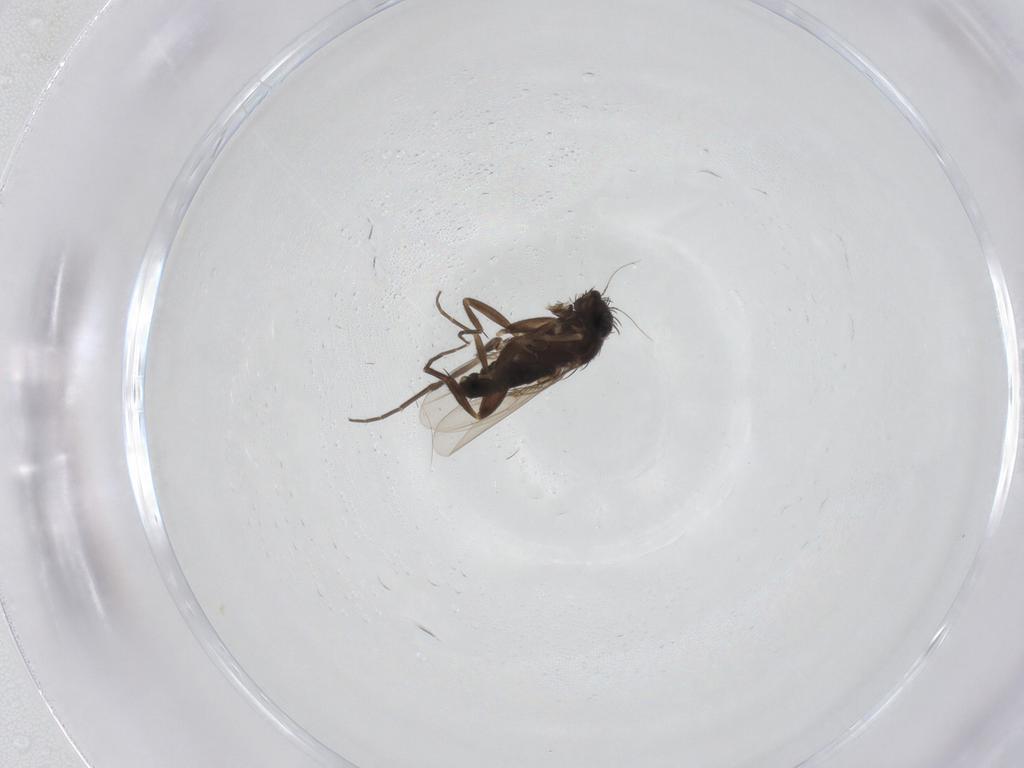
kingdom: Animalia
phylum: Arthropoda
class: Insecta
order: Diptera
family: Phoridae
